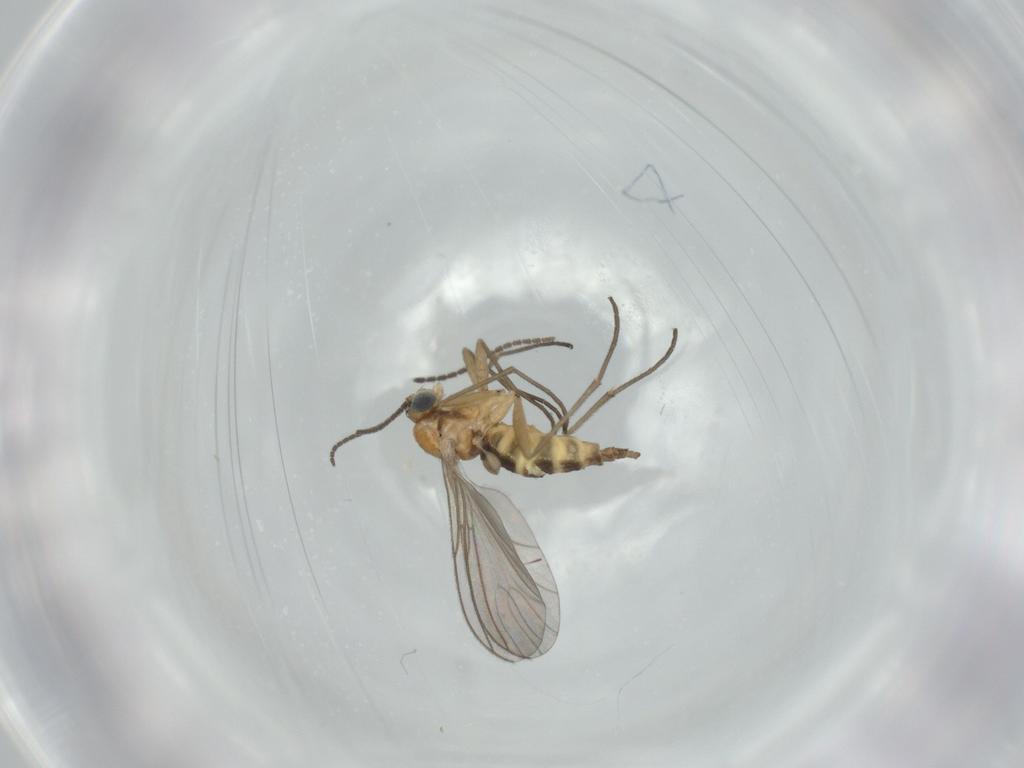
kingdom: Animalia
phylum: Arthropoda
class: Insecta
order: Diptera
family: Sciaridae
